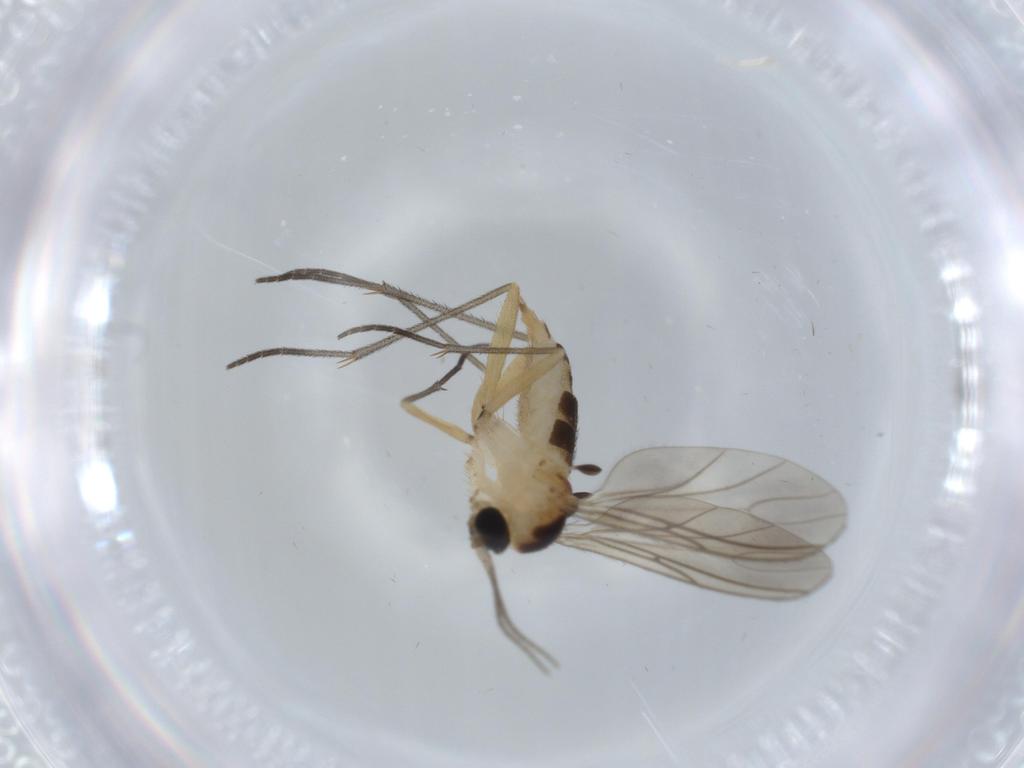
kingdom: Animalia
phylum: Arthropoda
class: Insecta
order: Diptera
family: Sciaridae
